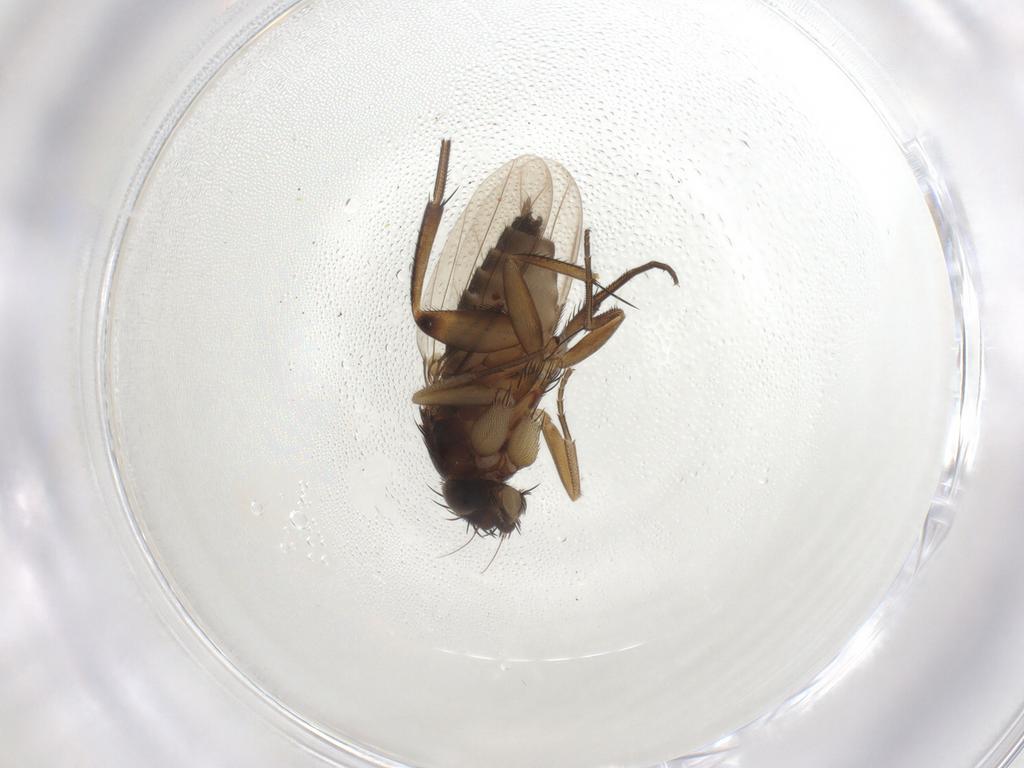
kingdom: Animalia
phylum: Arthropoda
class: Insecta
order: Diptera
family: Phoridae
